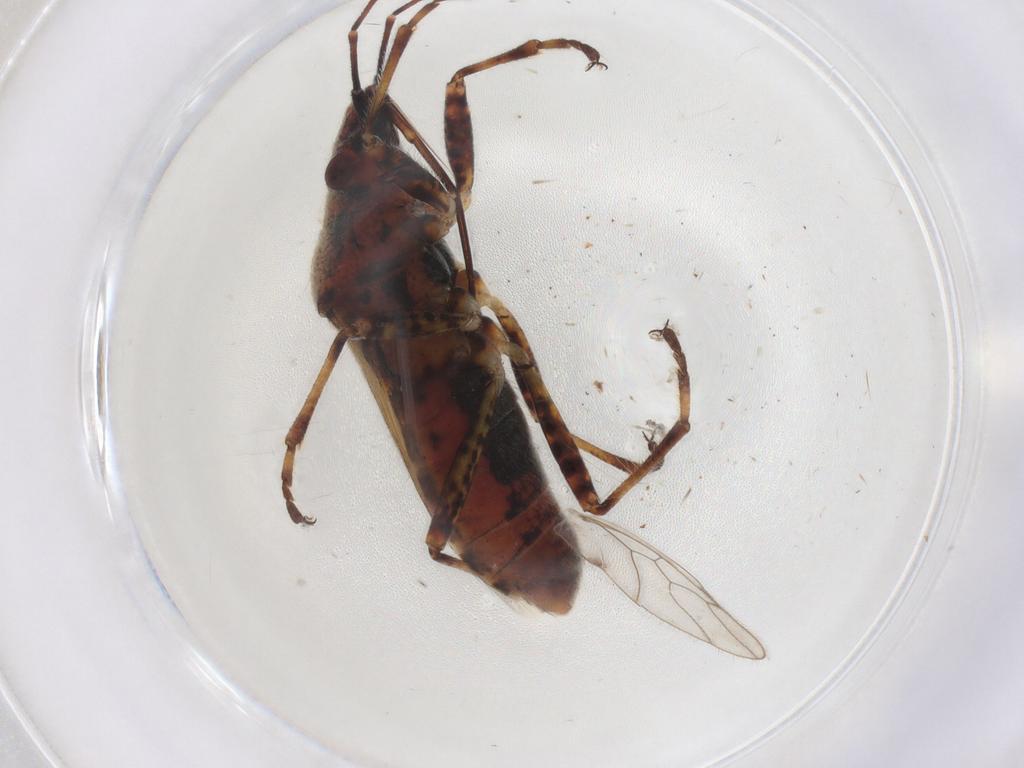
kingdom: Animalia
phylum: Arthropoda
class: Insecta
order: Hemiptera
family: Lygaeidae
